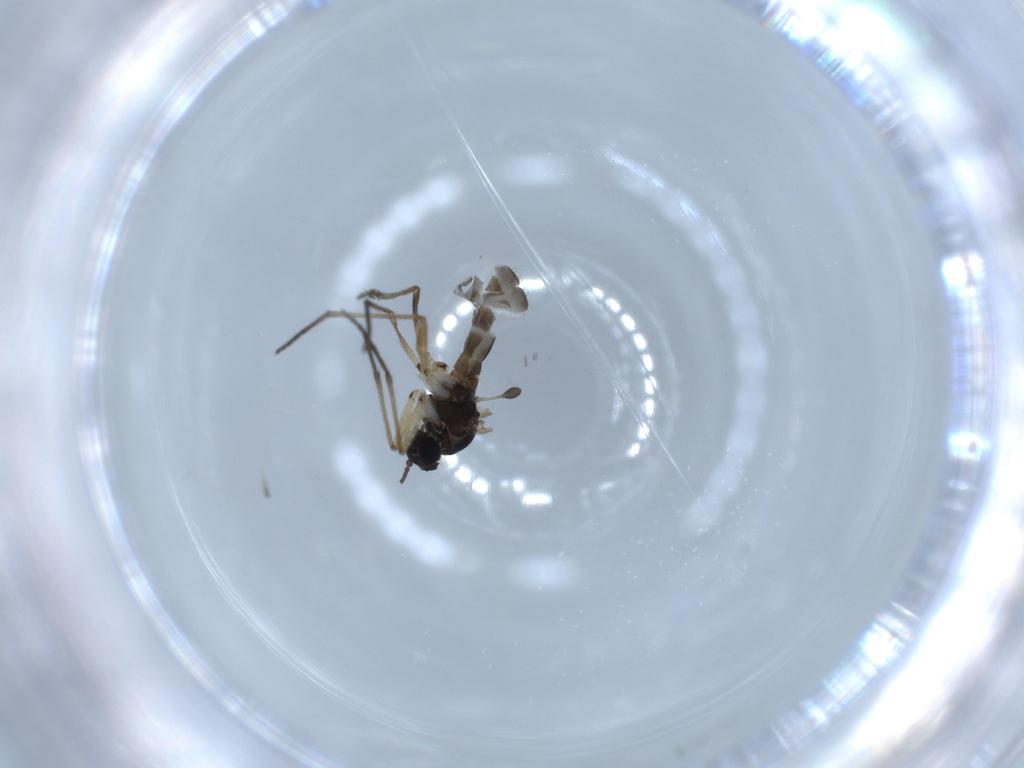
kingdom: Animalia
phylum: Arthropoda
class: Insecta
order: Diptera
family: Sciaridae
